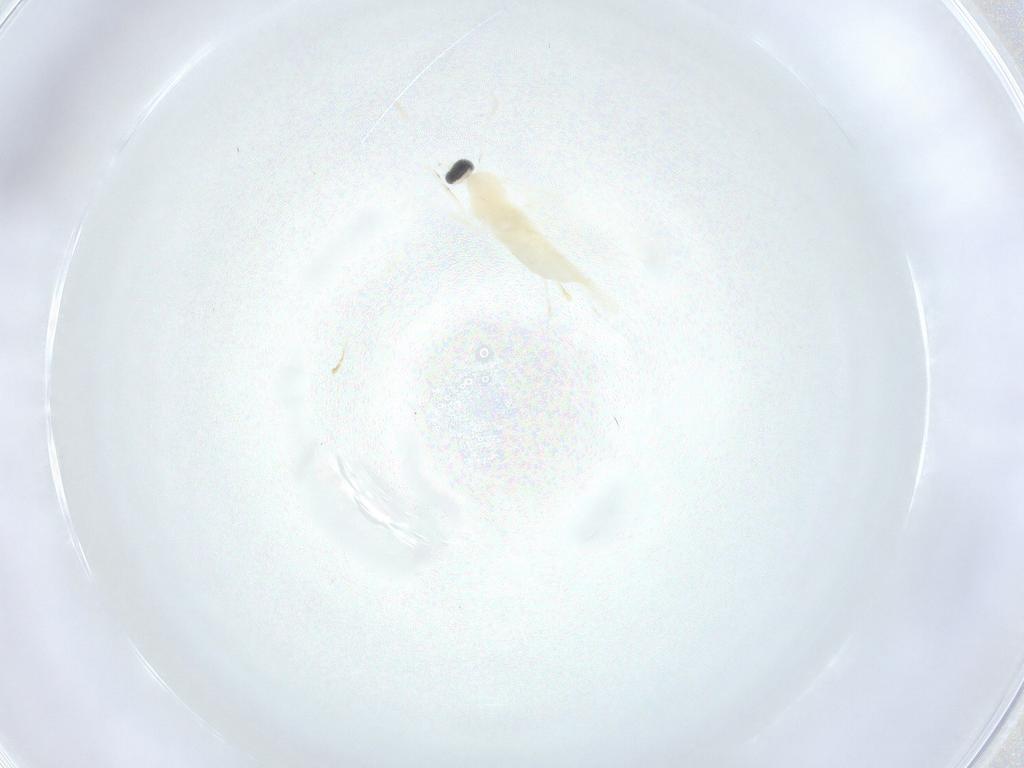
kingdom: Animalia
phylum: Arthropoda
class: Insecta
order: Diptera
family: Cecidomyiidae
